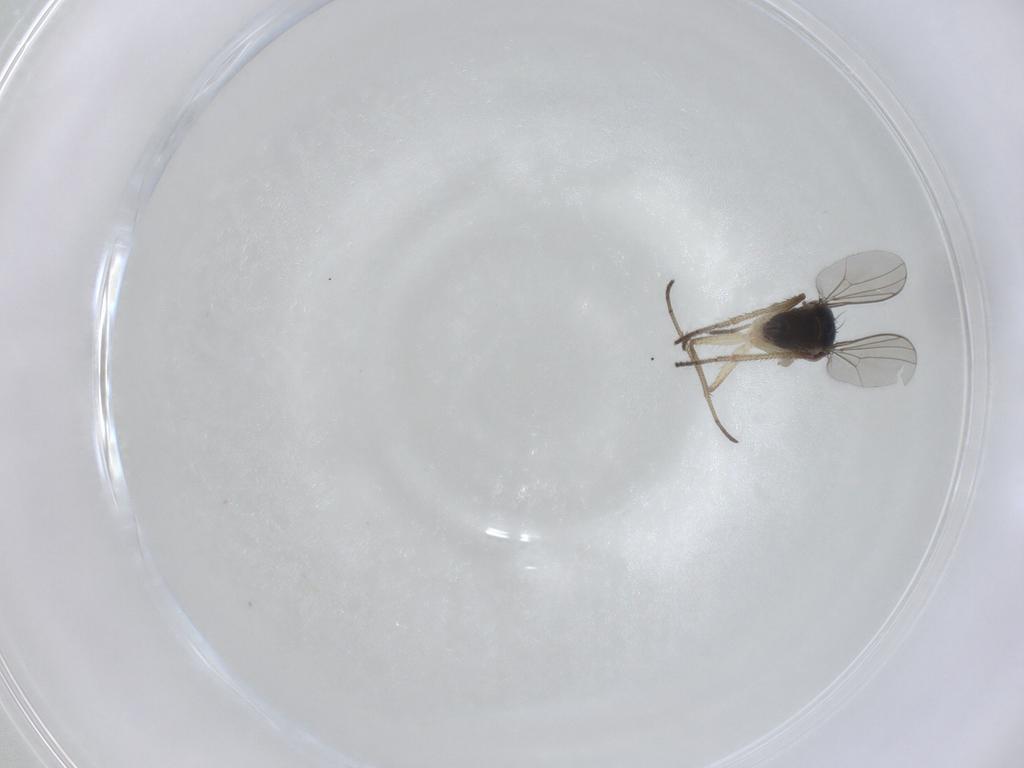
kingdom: Animalia
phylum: Arthropoda
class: Insecta
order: Diptera
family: Dolichopodidae
